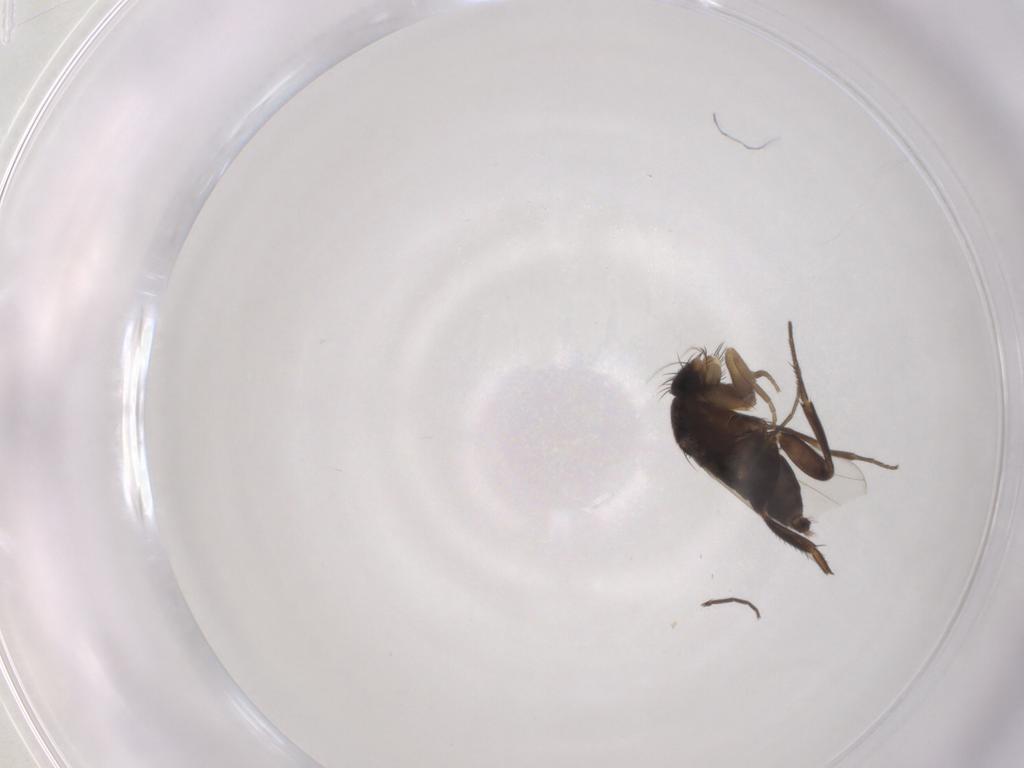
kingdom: Animalia
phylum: Arthropoda
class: Insecta
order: Diptera
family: Phoridae
